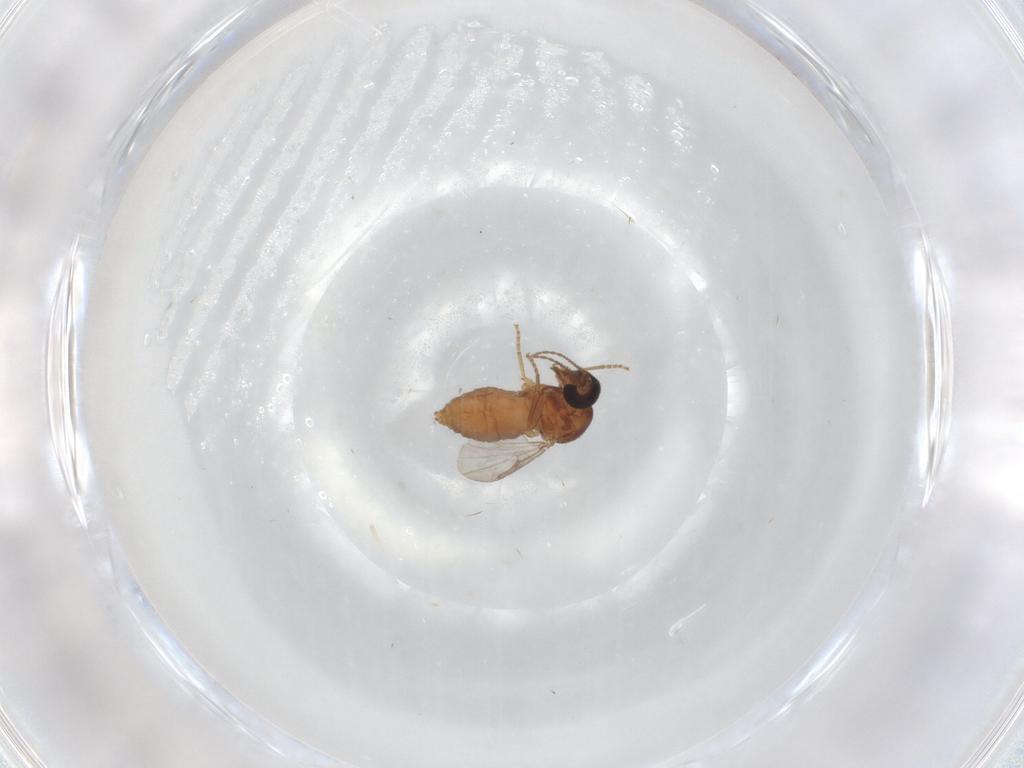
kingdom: Animalia
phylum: Arthropoda
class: Insecta
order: Diptera
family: Ceratopogonidae
